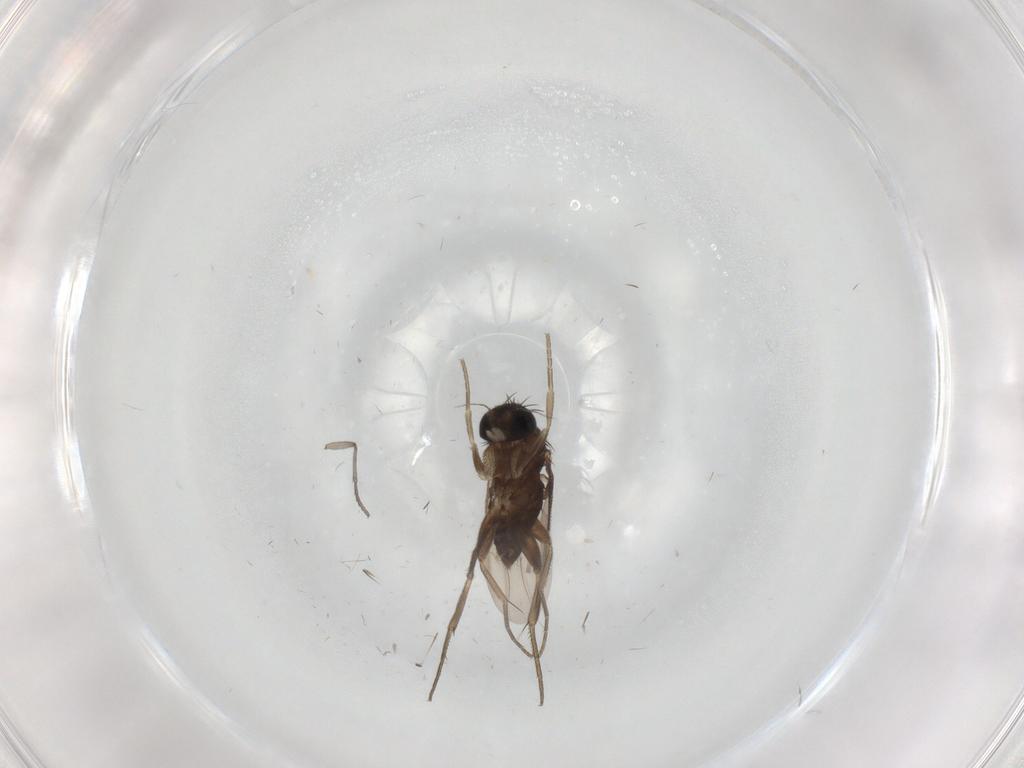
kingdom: Animalia
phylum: Arthropoda
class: Insecta
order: Diptera
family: Phoridae
